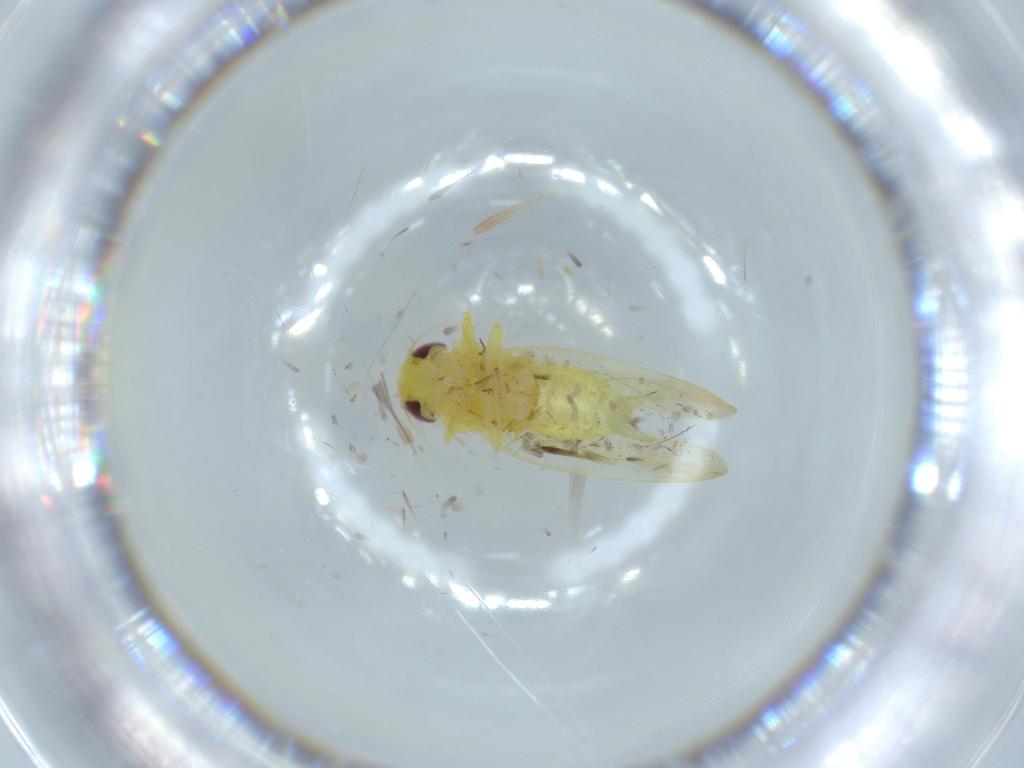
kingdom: Animalia
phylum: Arthropoda
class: Insecta
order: Hemiptera
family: Cicadellidae
